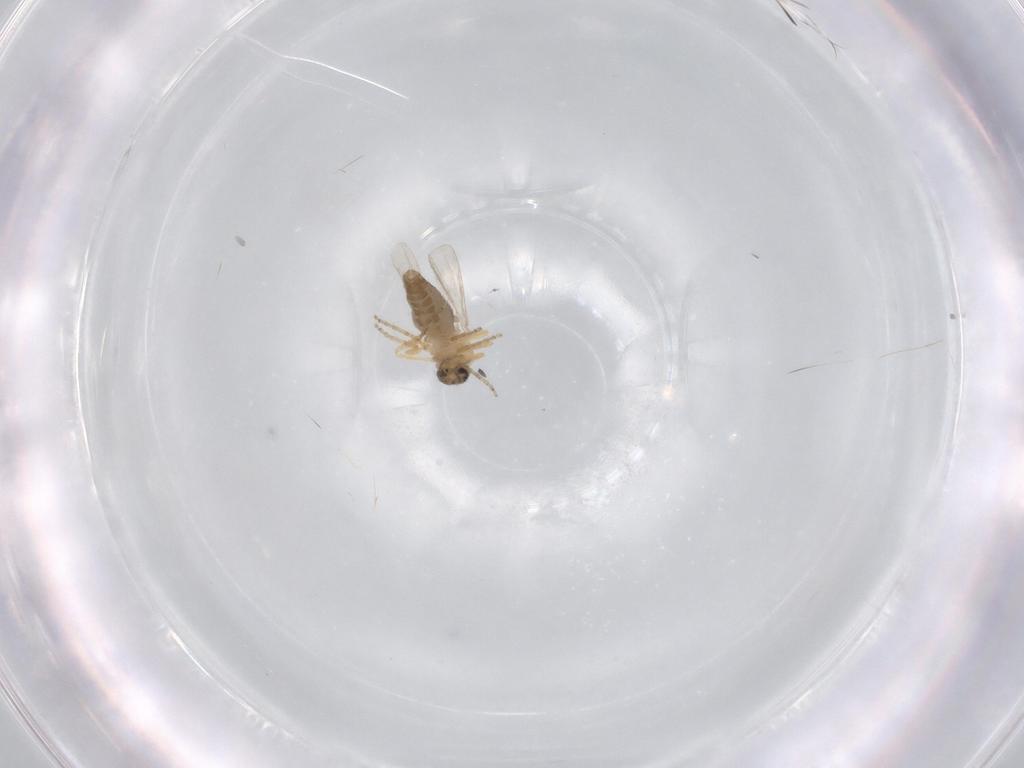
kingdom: Animalia
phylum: Arthropoda
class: Insecta
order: Diptera
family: Ceratopogonidae
